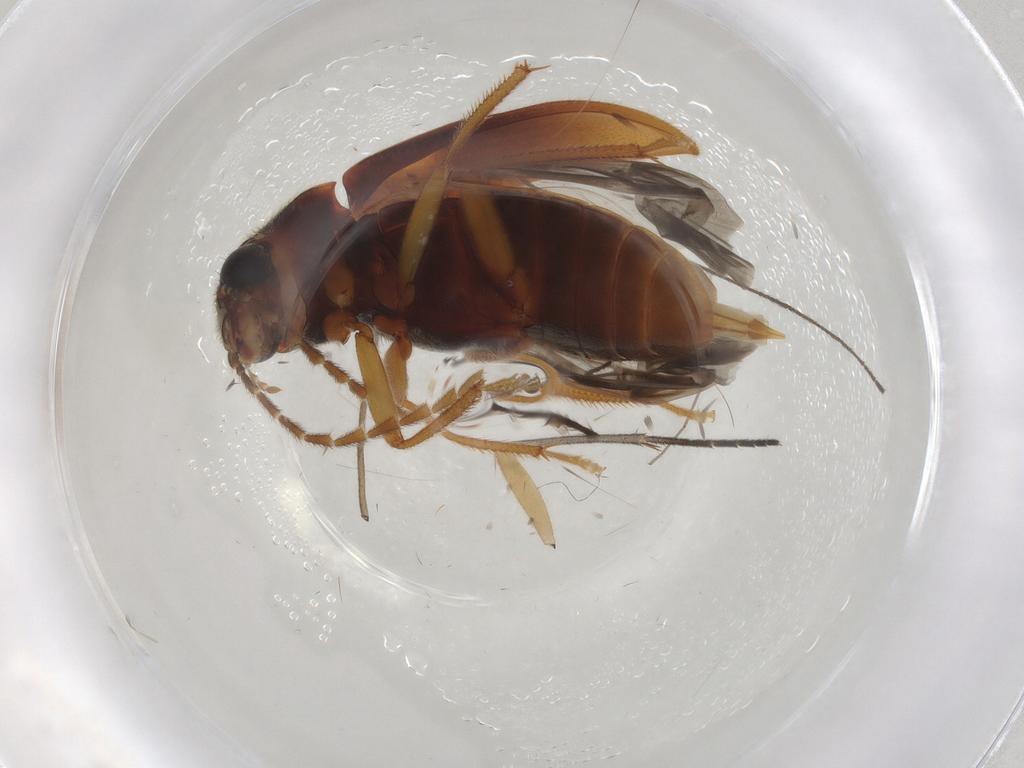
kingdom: Animalia
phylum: Arthropoda
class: Insecta
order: Coleoptera
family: Ptilodactylidae
